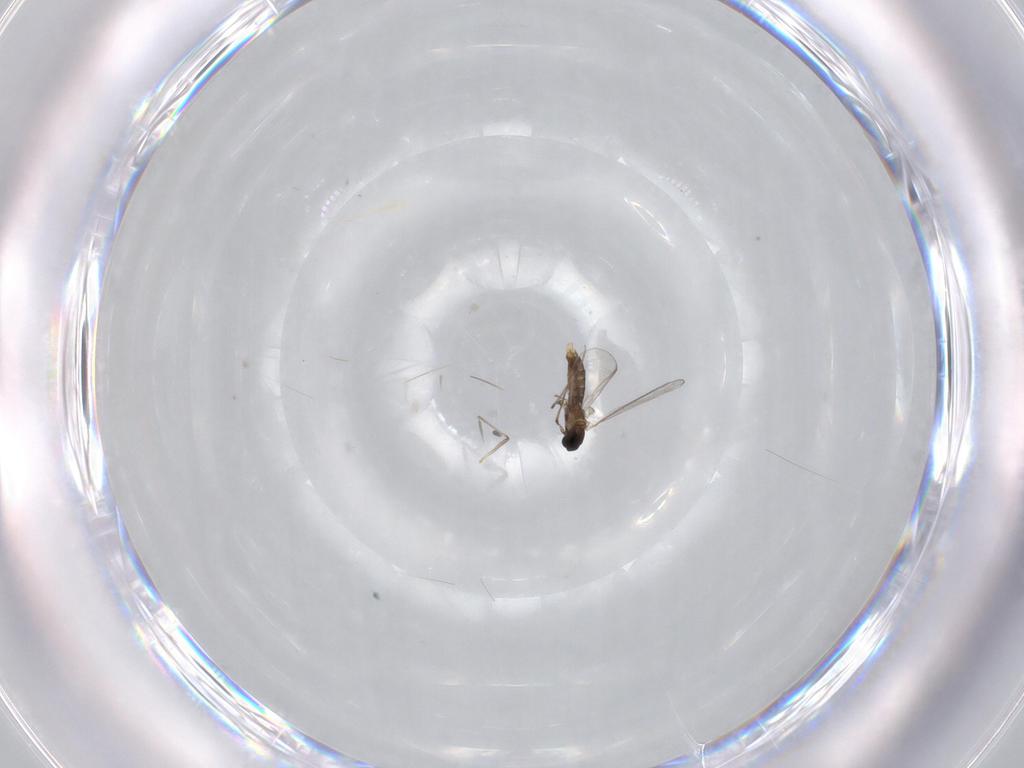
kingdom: Animalia
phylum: Arthropoda
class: Insecta
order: Diptera
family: Chironomidae
